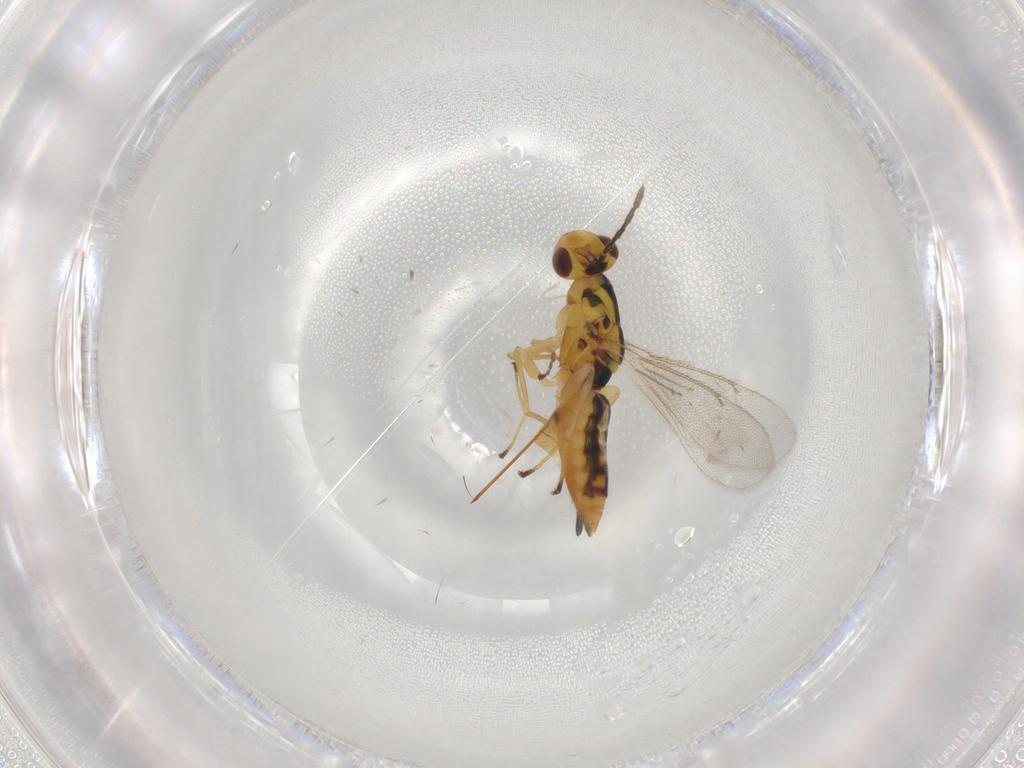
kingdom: Animalia
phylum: Arthropoda
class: Insecta
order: Hymenoptera
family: Eulophidae
